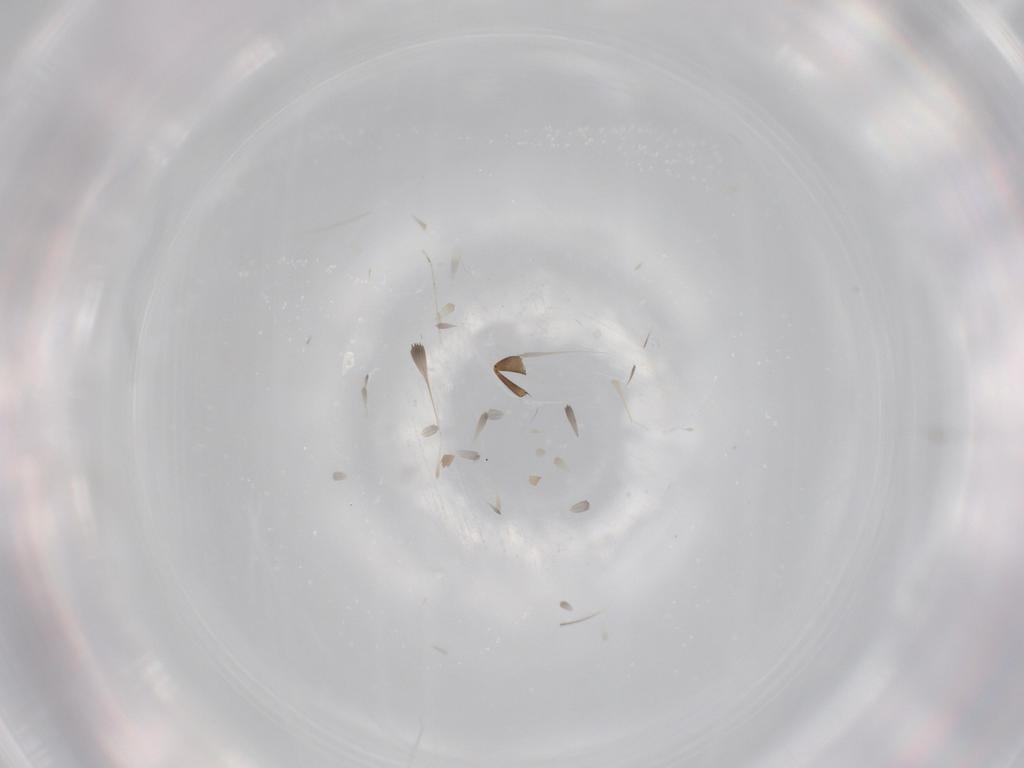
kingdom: Animalia
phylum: Arthropoda
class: Insecta
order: Diptera
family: Phoridae
